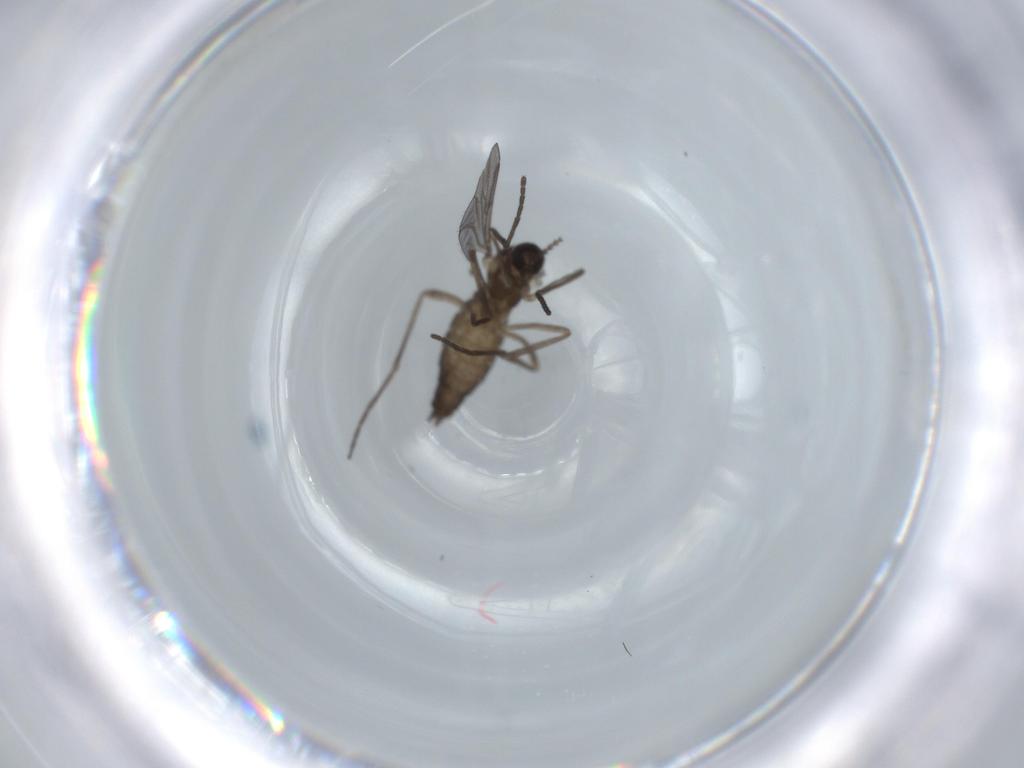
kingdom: Animalia
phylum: Arthropoda
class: Insecta
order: Diptera
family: Cecidomyiidae
